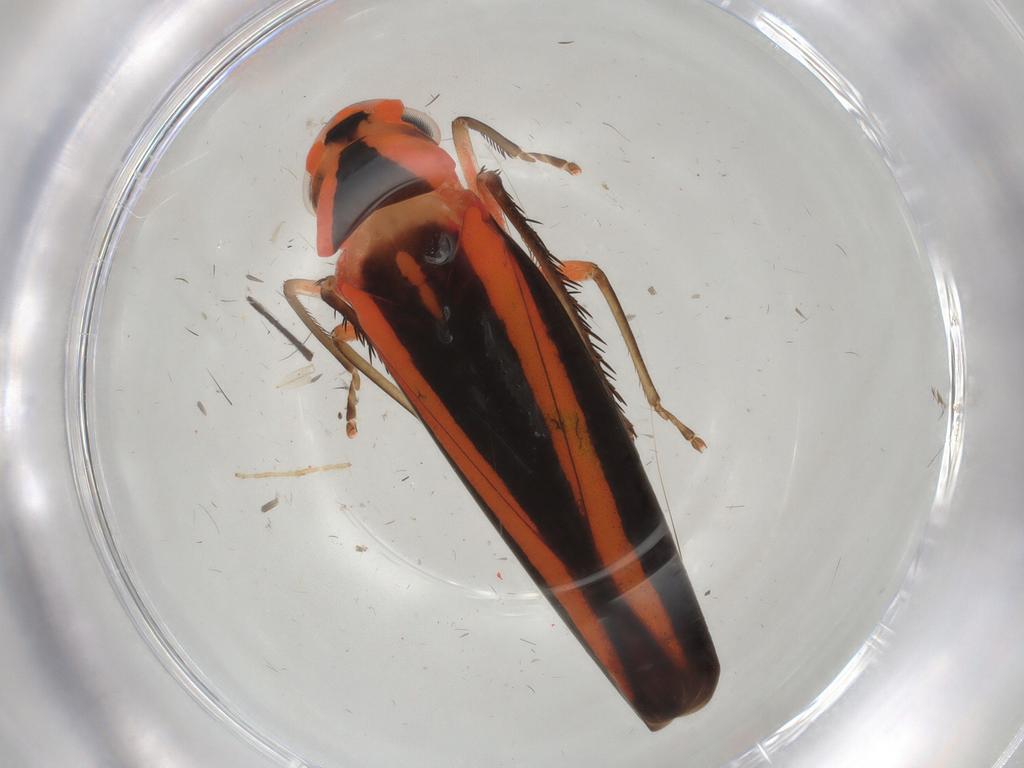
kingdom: Animalia
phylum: Arthropoda
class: Insecta
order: Hemiptera
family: Cicadellidae
